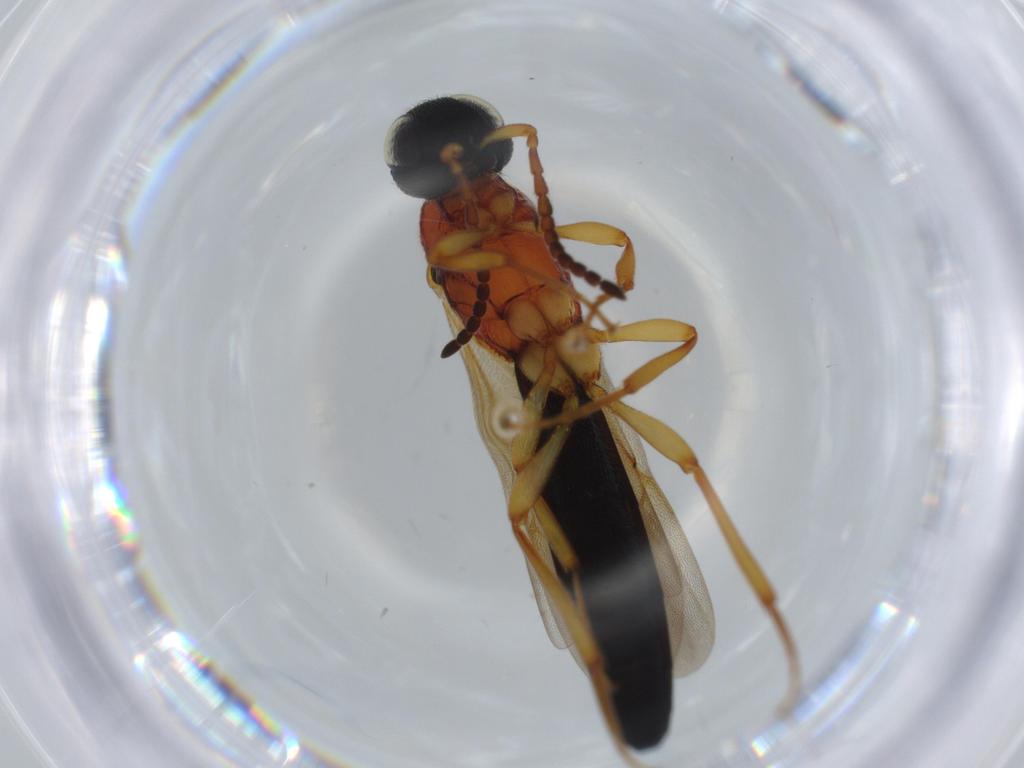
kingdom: Animalia
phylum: Arthropoda
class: Insecta
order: Hymenoptera
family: Scelionidae
